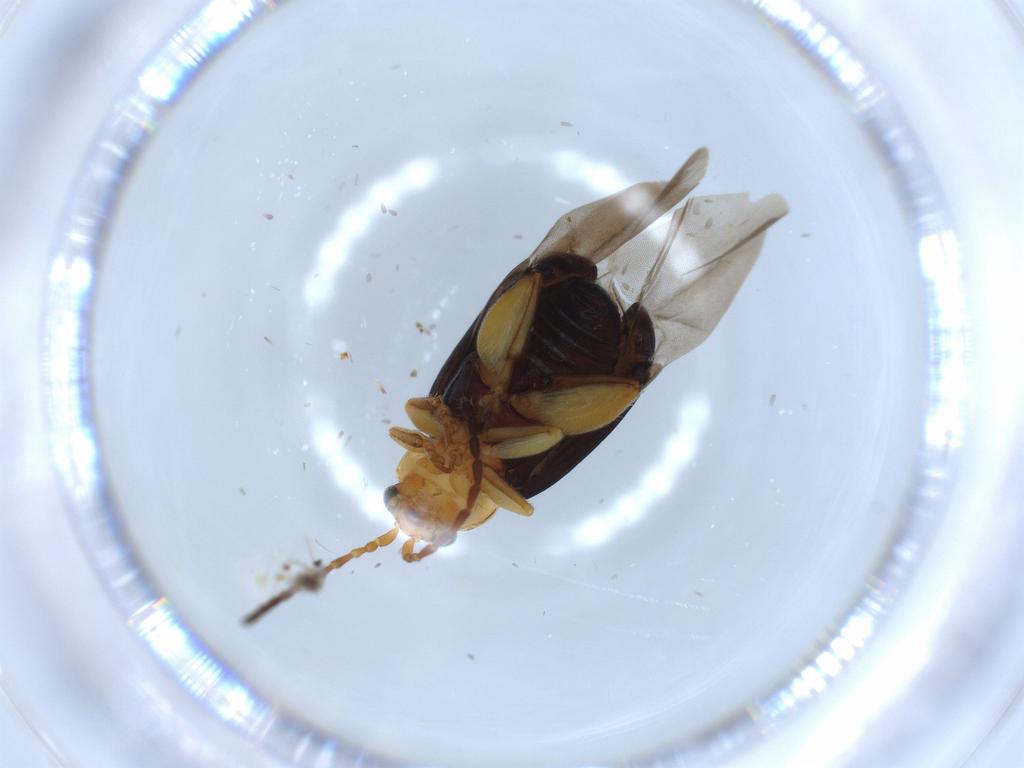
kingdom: Animalia
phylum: Arthropoda
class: Insecta
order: Coleoptera
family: Chrysomelidae
